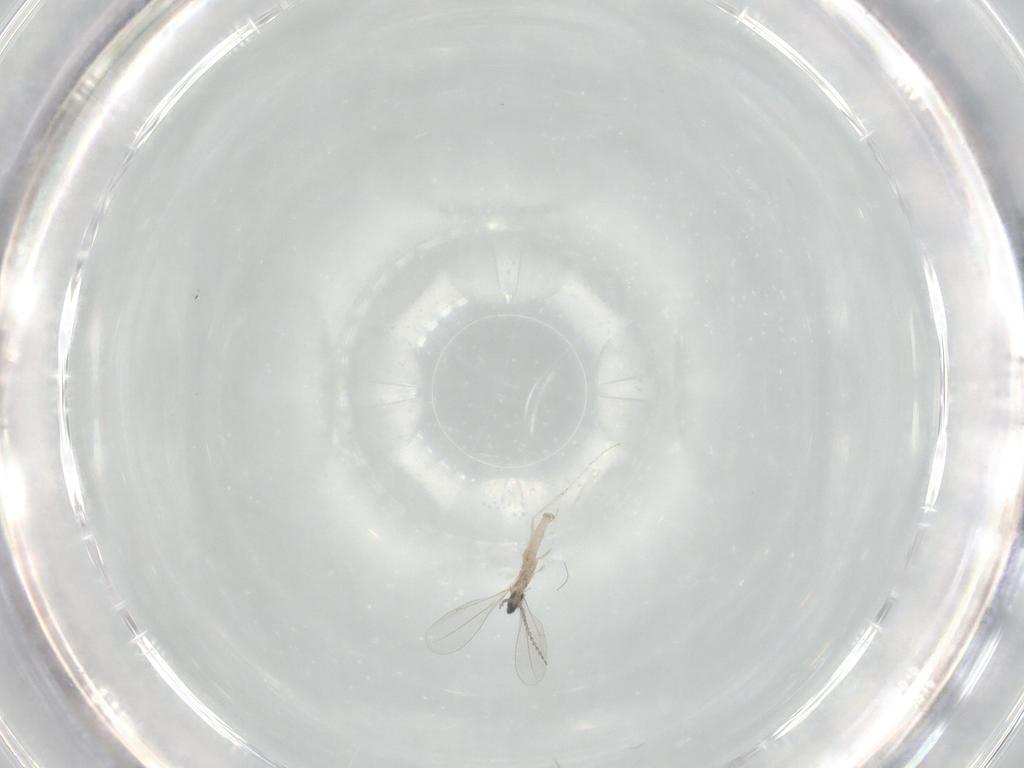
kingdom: Animalia
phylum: Arthropoda
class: Insecta
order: Diptera
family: Cecidomyiidae
